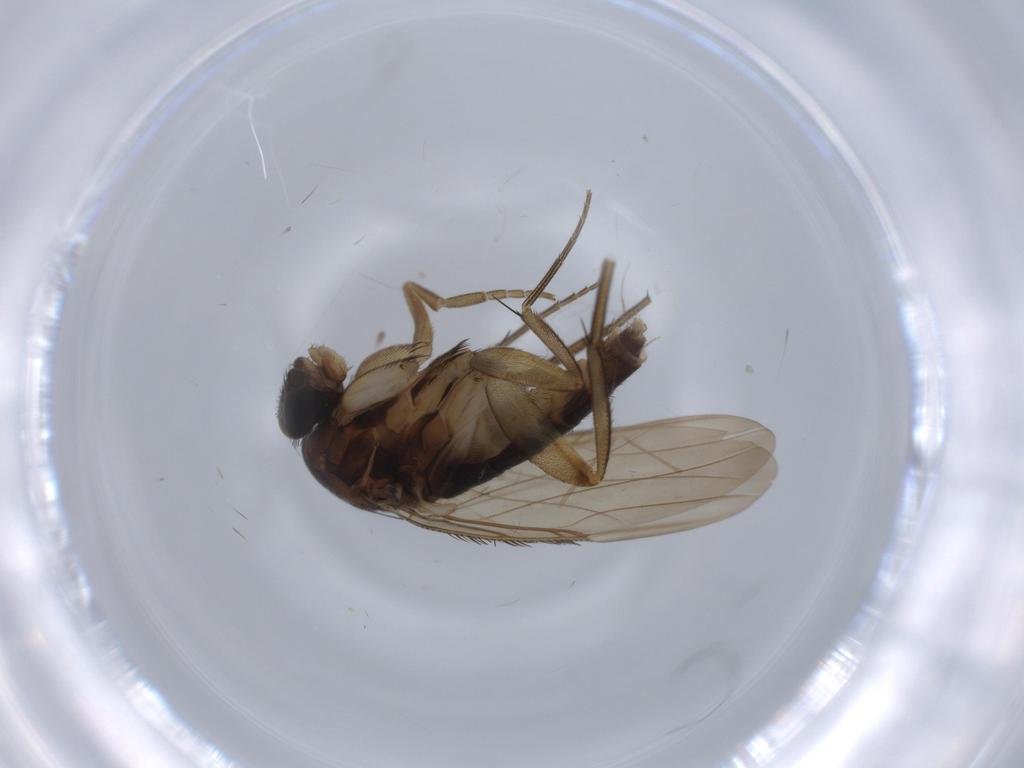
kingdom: Animalia
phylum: Arthropoda
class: Insecta
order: Diptera
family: Phoridae
